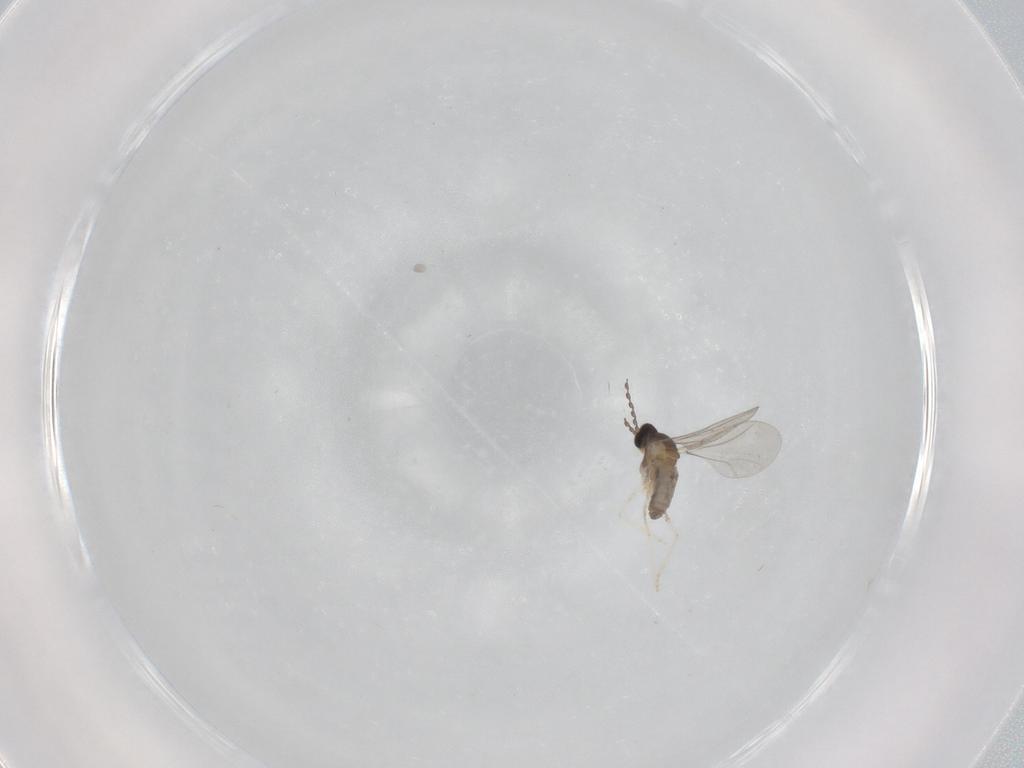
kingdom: Animalia
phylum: Arthropoda
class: Insecta
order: Diptera
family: Cecidomyiidae
